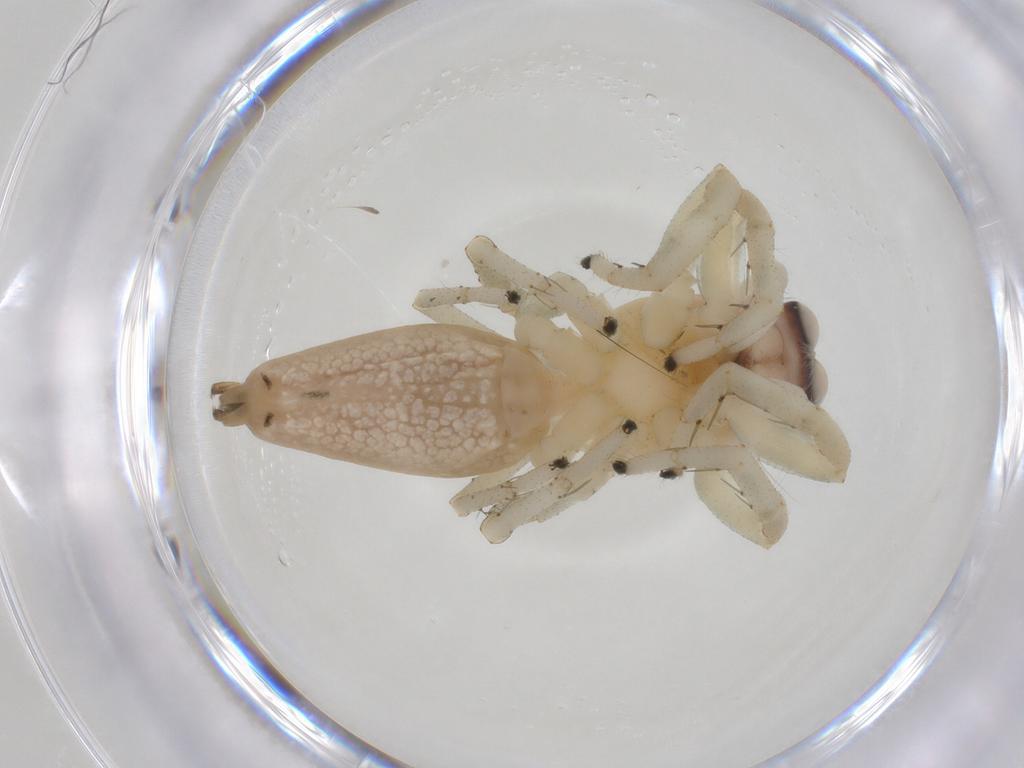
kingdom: Animalia
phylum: Arthropoda
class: Arachnida
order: Araneae
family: Salticidae
